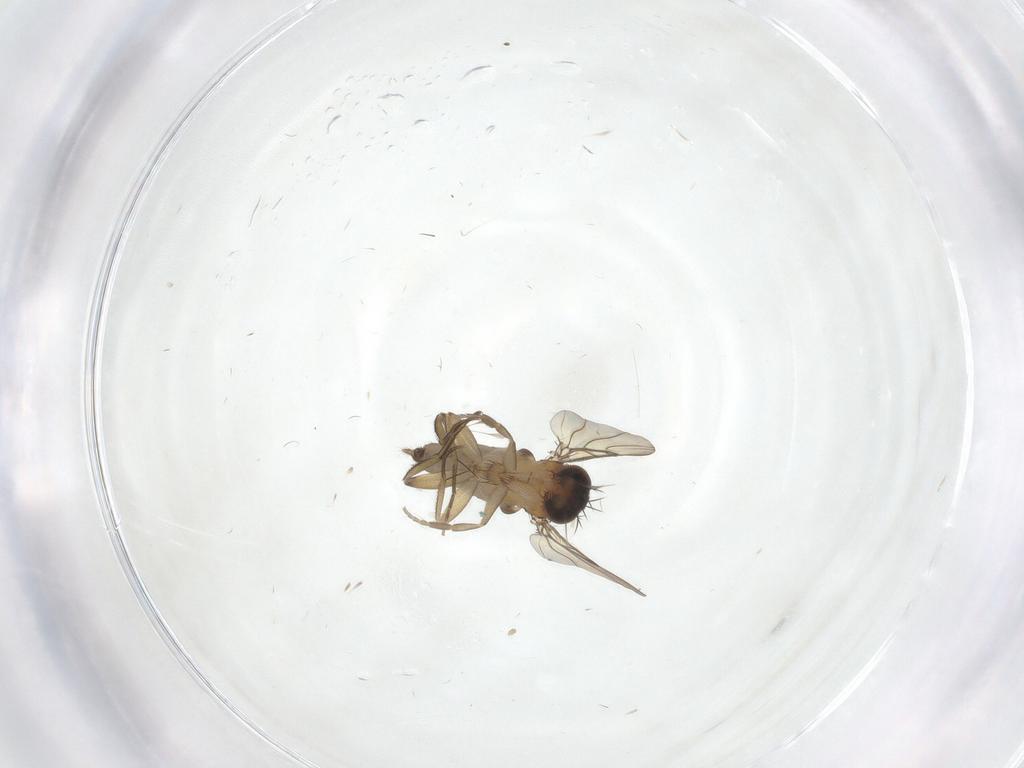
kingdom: Animalia
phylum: Arthropoda
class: Insecta
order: Diptera
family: Phoridae
